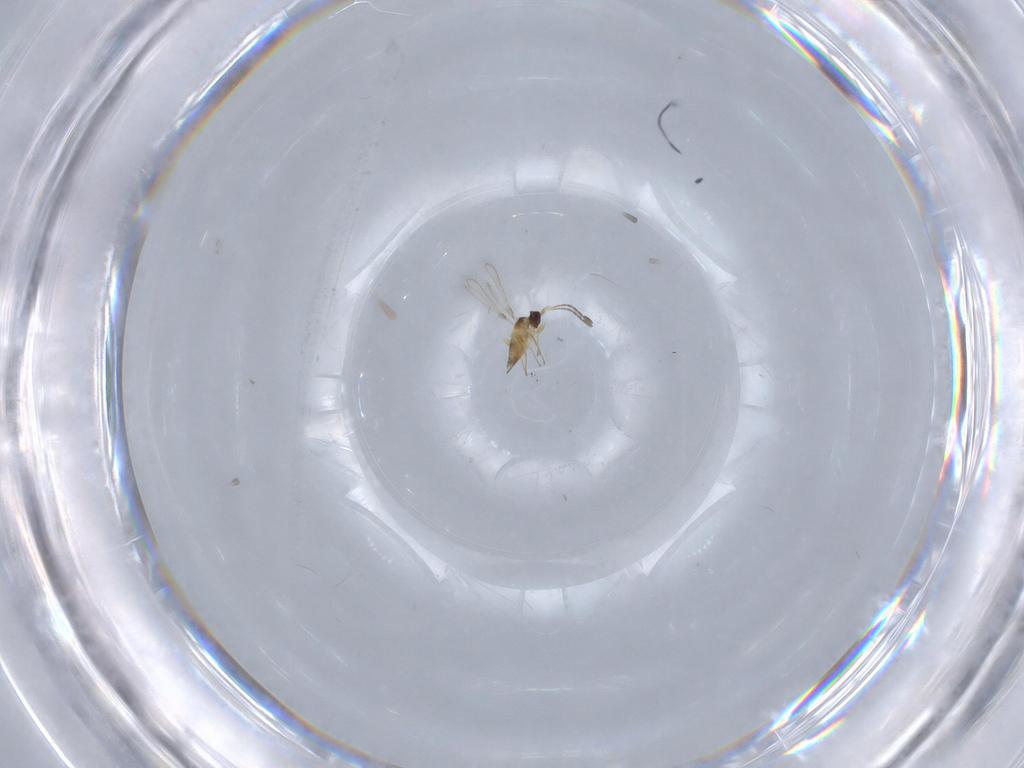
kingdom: Animalia
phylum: Arthropoda
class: Insecta
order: Hymenoptera
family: Mymaridae
